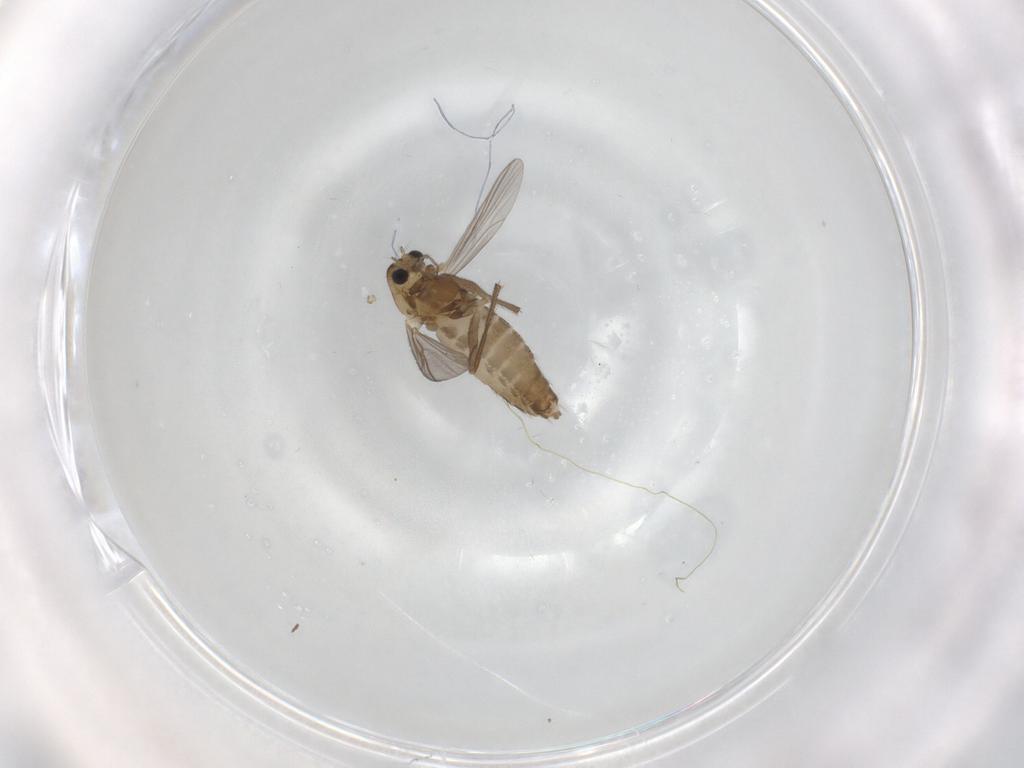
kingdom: Animalia
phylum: Arthropoda
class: Insecta
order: Diptera
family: Chironomidae
